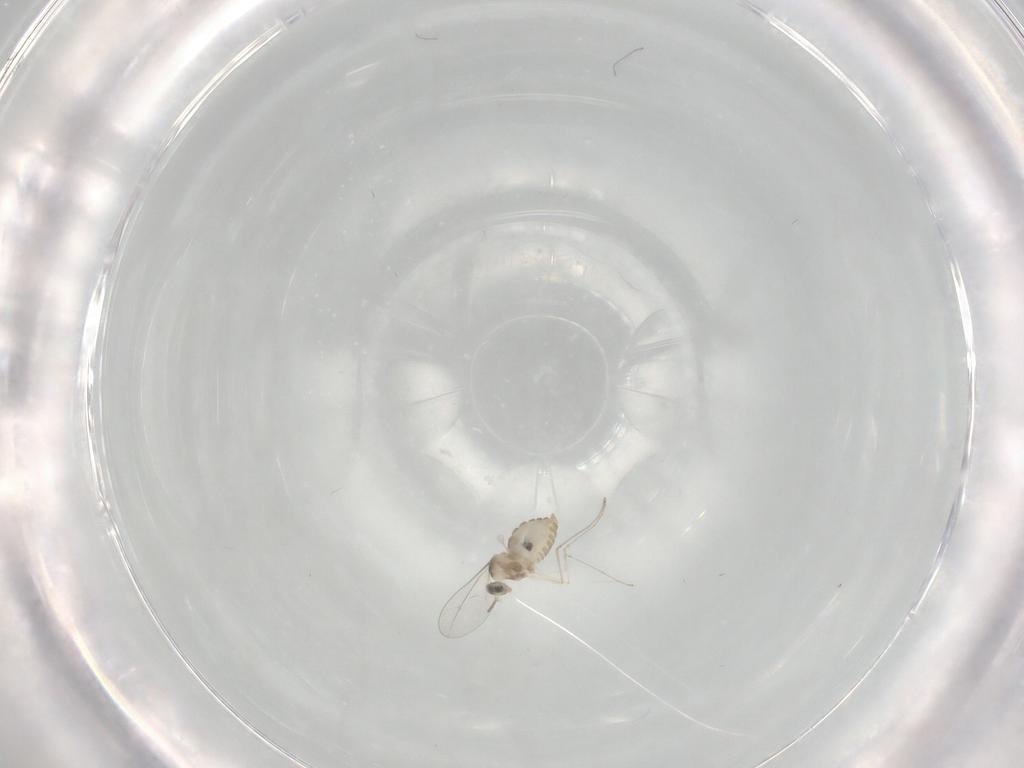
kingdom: Animalia
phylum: Arthropoda
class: Insecta
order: Diptera
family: Cecidomyiidae
